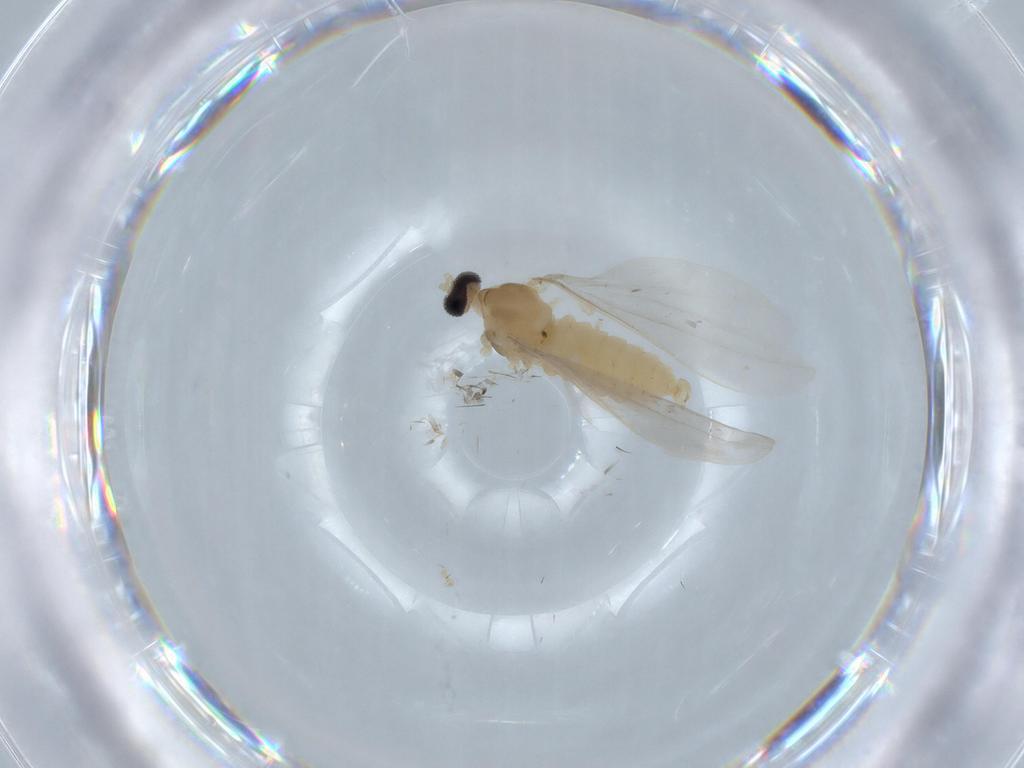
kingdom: Animalia
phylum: Arthropoda
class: Insecta
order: Diptera
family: Cecidomyiidae
